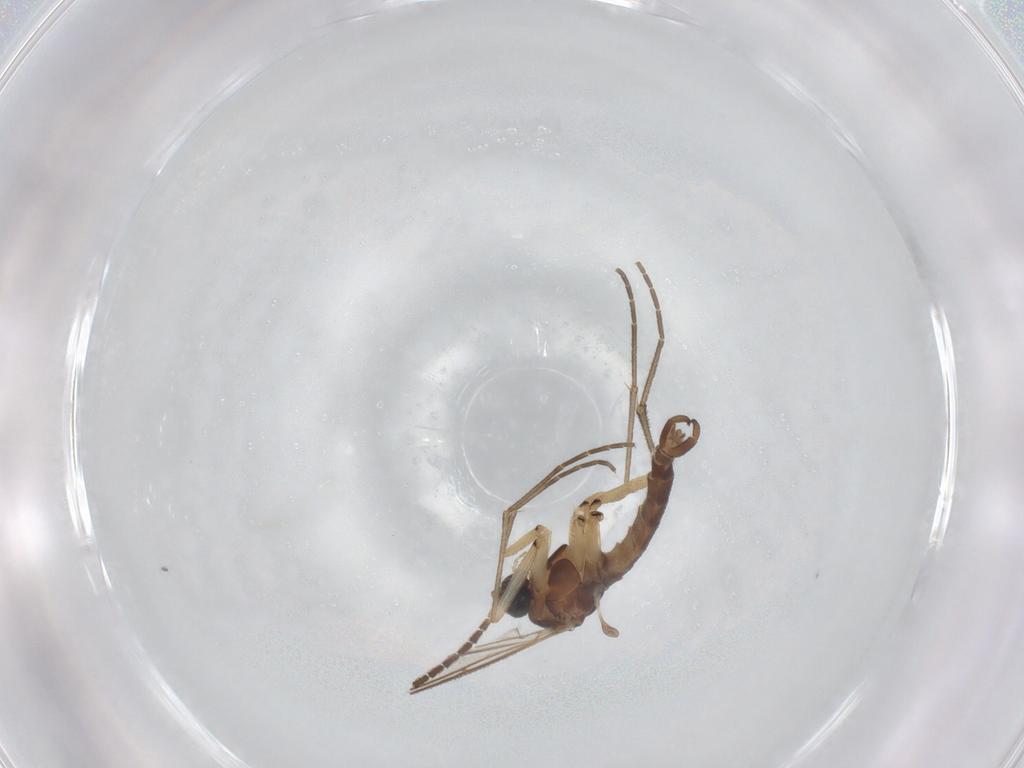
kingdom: Animalia
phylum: Arthropoda
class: Insecta
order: Diptera
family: Sciaridae
